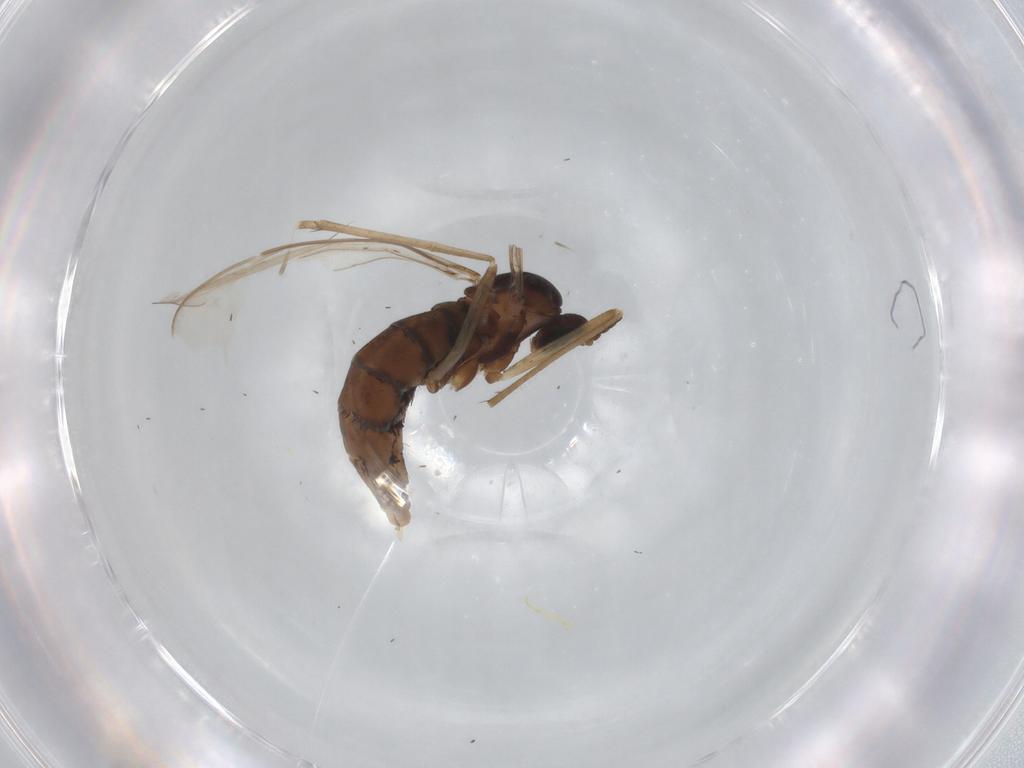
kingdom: Animalia
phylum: Arthropoda
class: Insecta
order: Diptera
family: Cecidomyiidae
